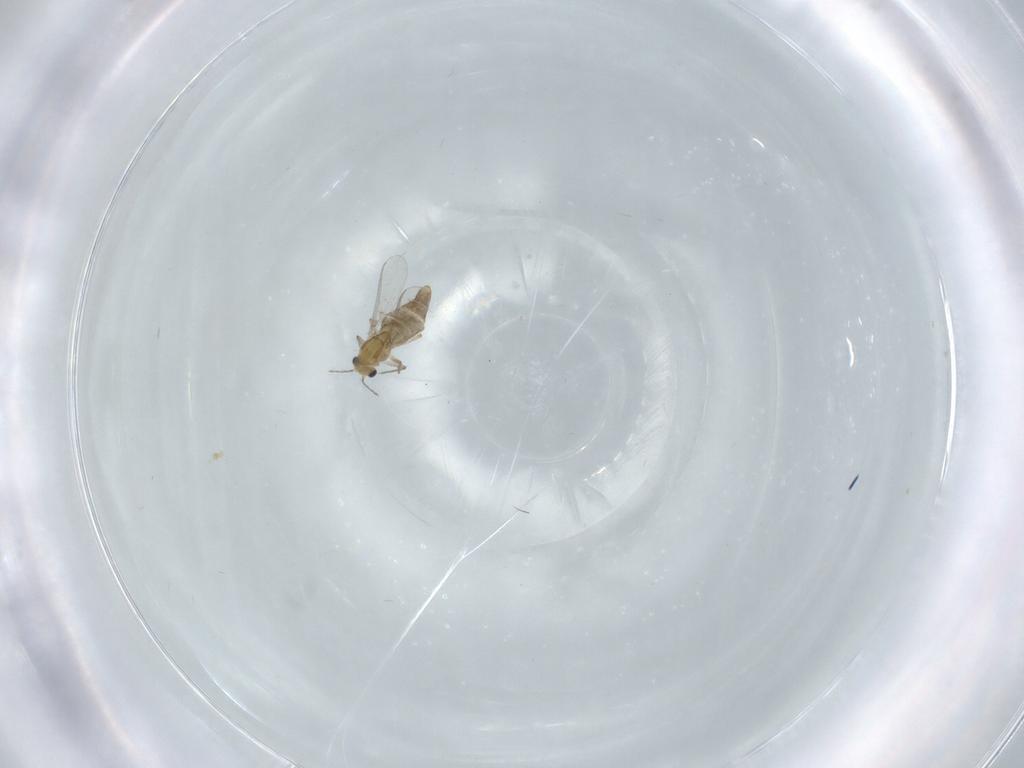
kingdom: Animalia
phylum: Arthropoda
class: Insecta
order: Diptera
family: Chironomidae
